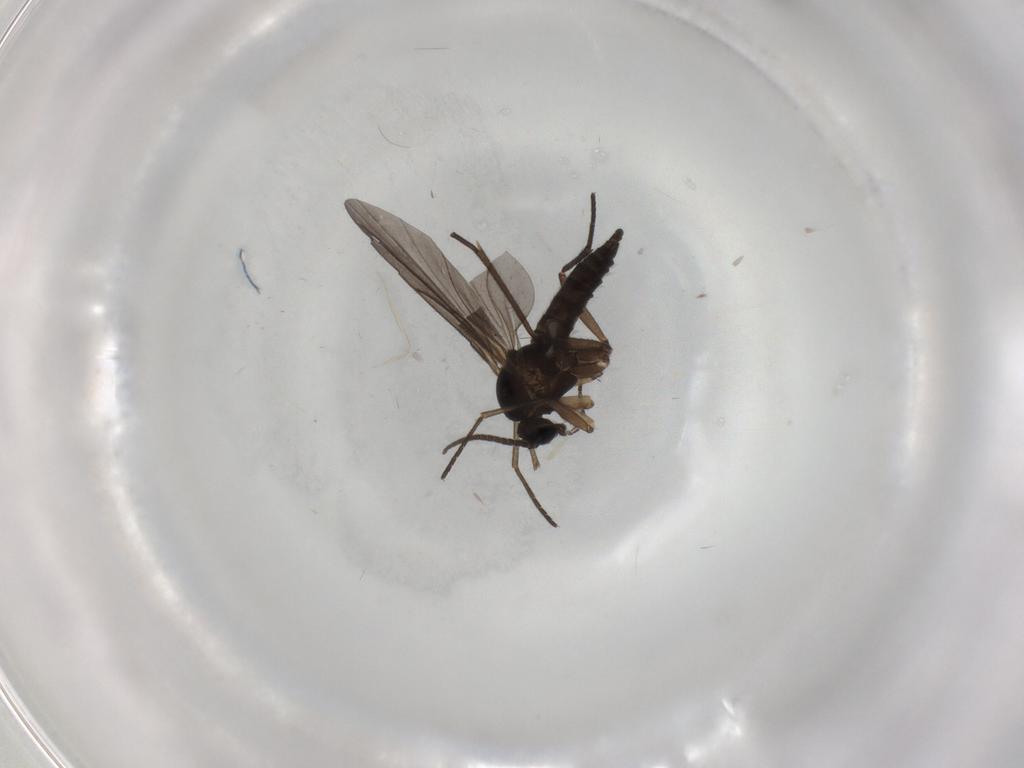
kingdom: Animalia
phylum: Arthropoda
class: Insecta
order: Diptera
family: Sciaridae
